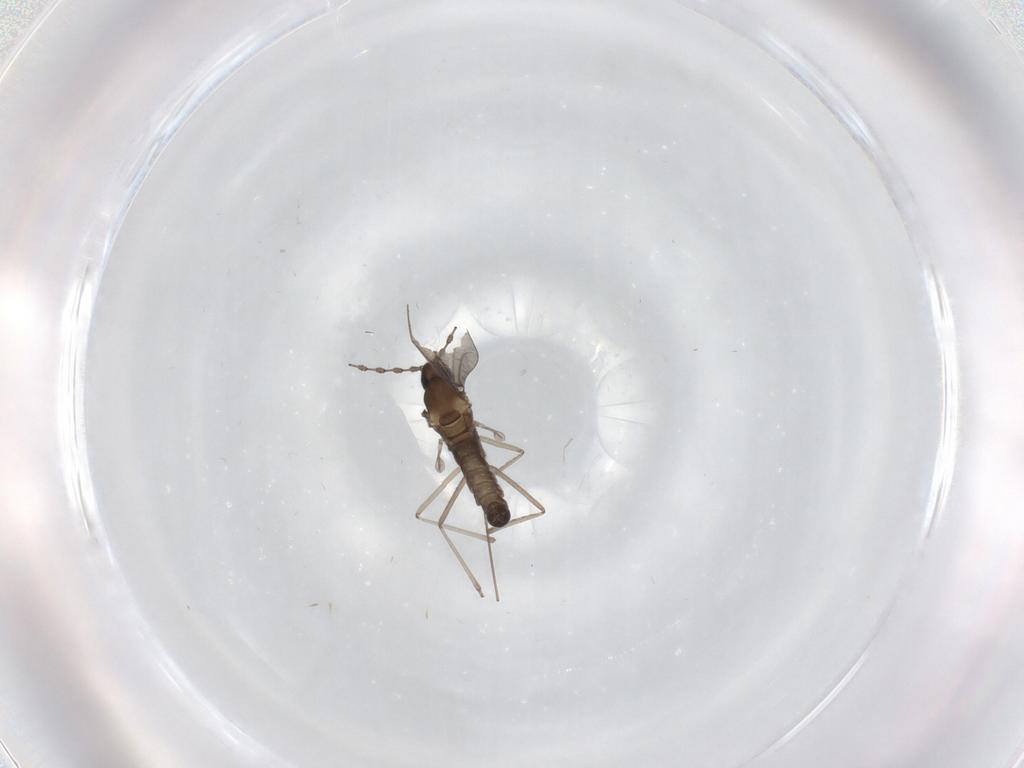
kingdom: Animalia
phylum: Arthropoda
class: Insecta
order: Diptera
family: Cecidomyiidae
